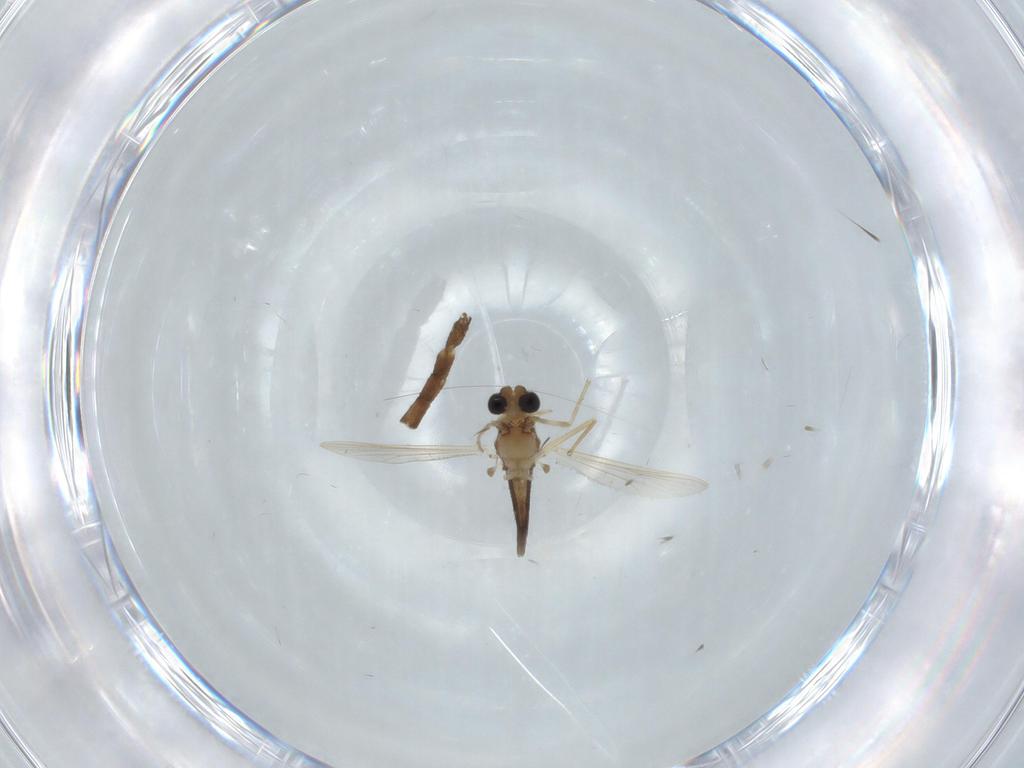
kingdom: Animalia
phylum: Arthropoda
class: Insecta
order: Diptera
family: Chironomidae
